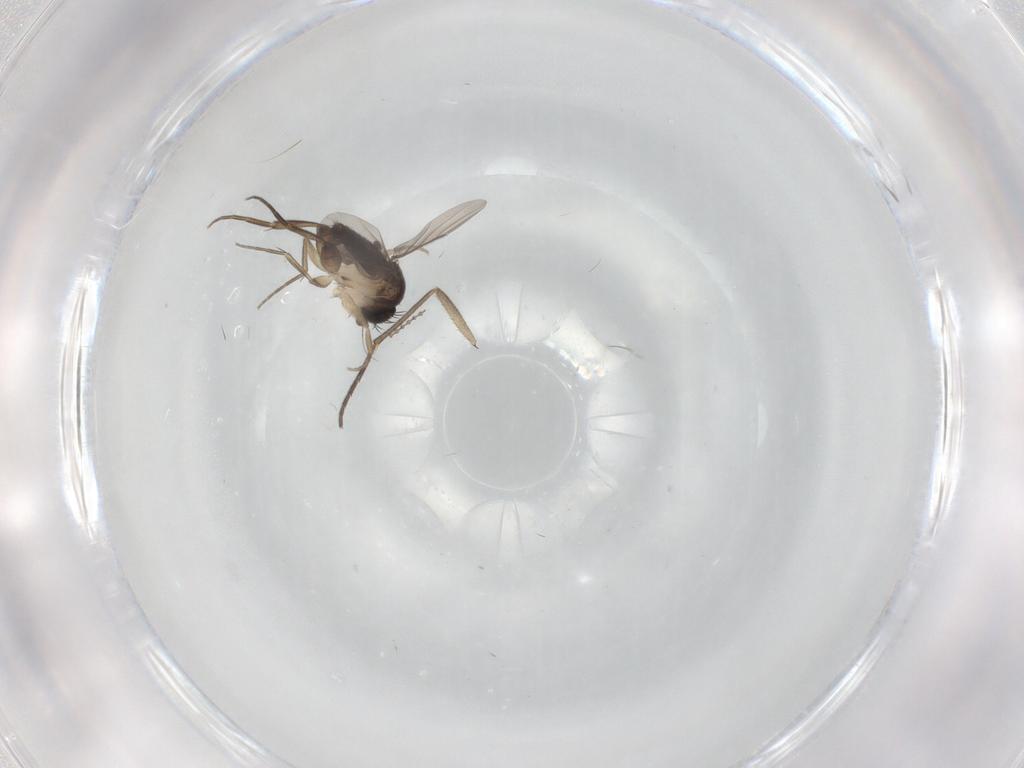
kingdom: Animalia
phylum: Arthropoda
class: Insecta
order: Diptera
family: Phoridae
